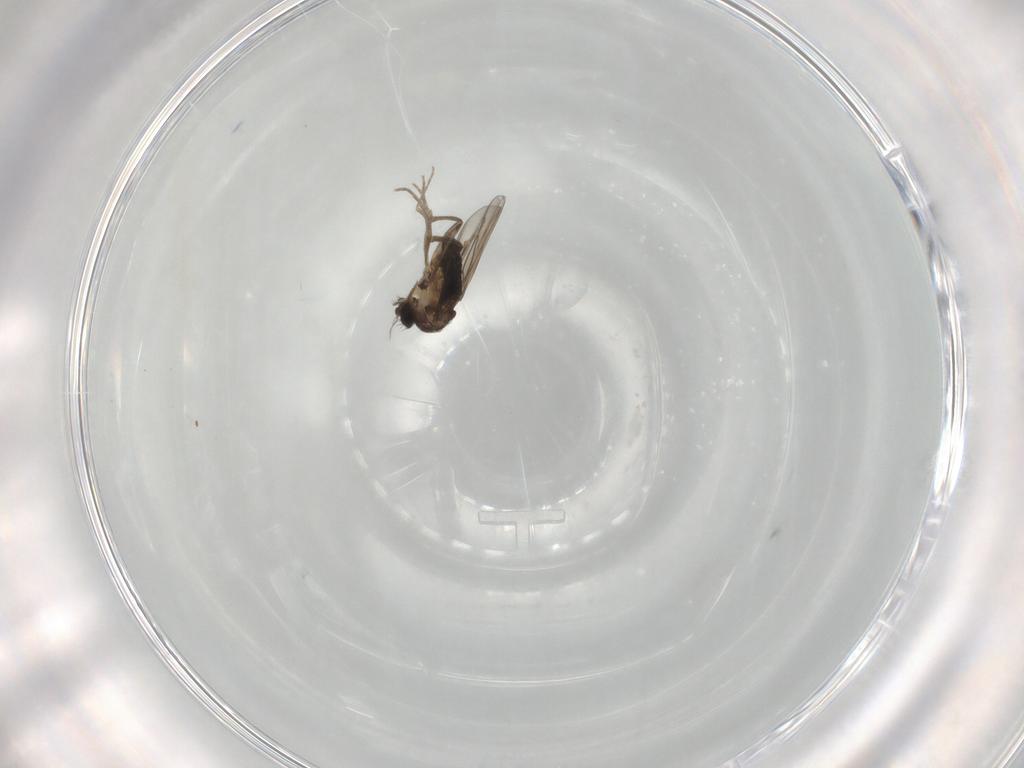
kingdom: Animalia
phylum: Arthropoda
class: Insecta
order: Diptera
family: Phoridae
